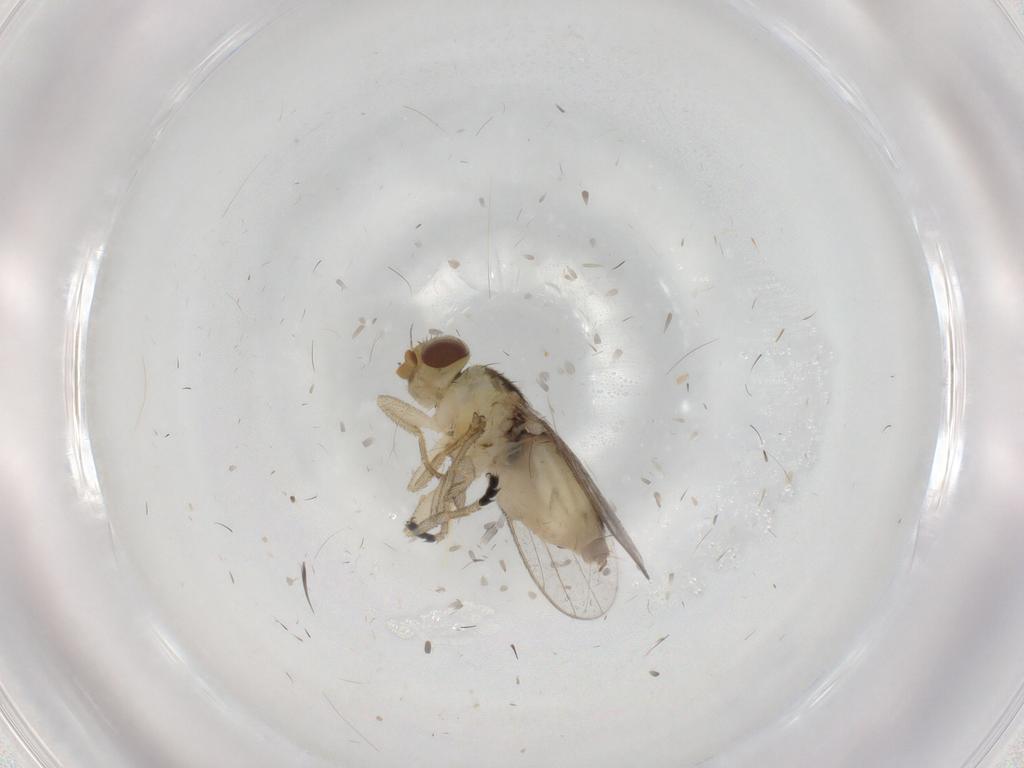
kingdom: Animalia
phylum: Arthropoda
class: Insecta
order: Diptera
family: Chloropidae
